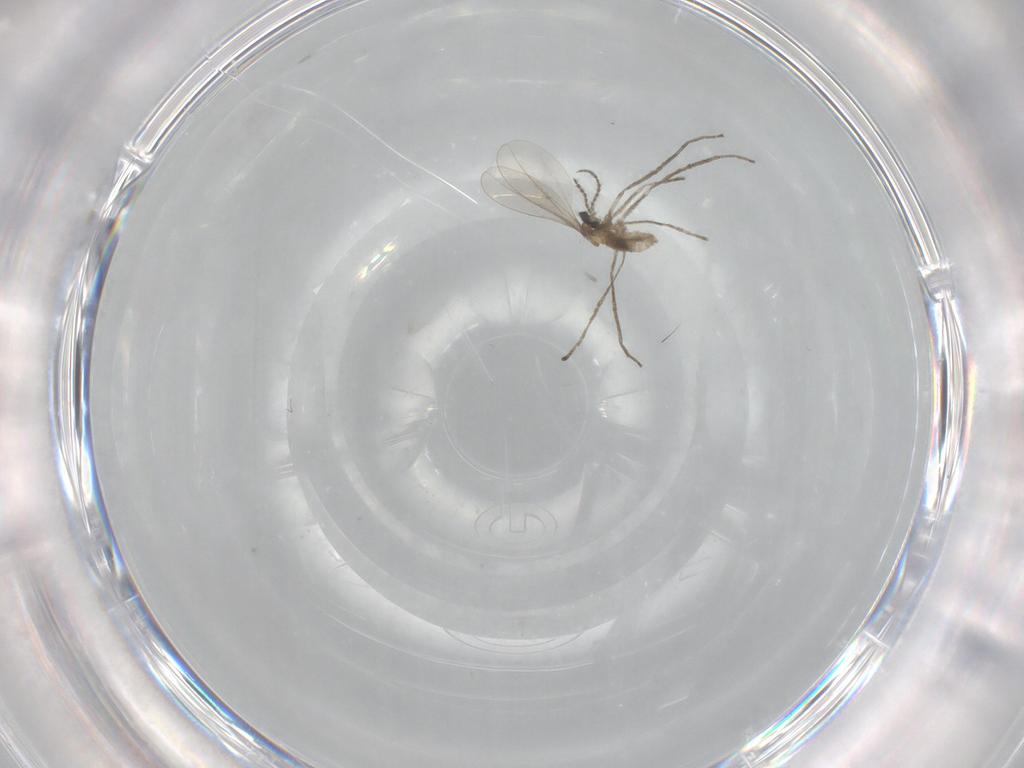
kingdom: Animalia
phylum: Arthropoda
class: Insecta
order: Diptera
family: Cecidomyiidae
